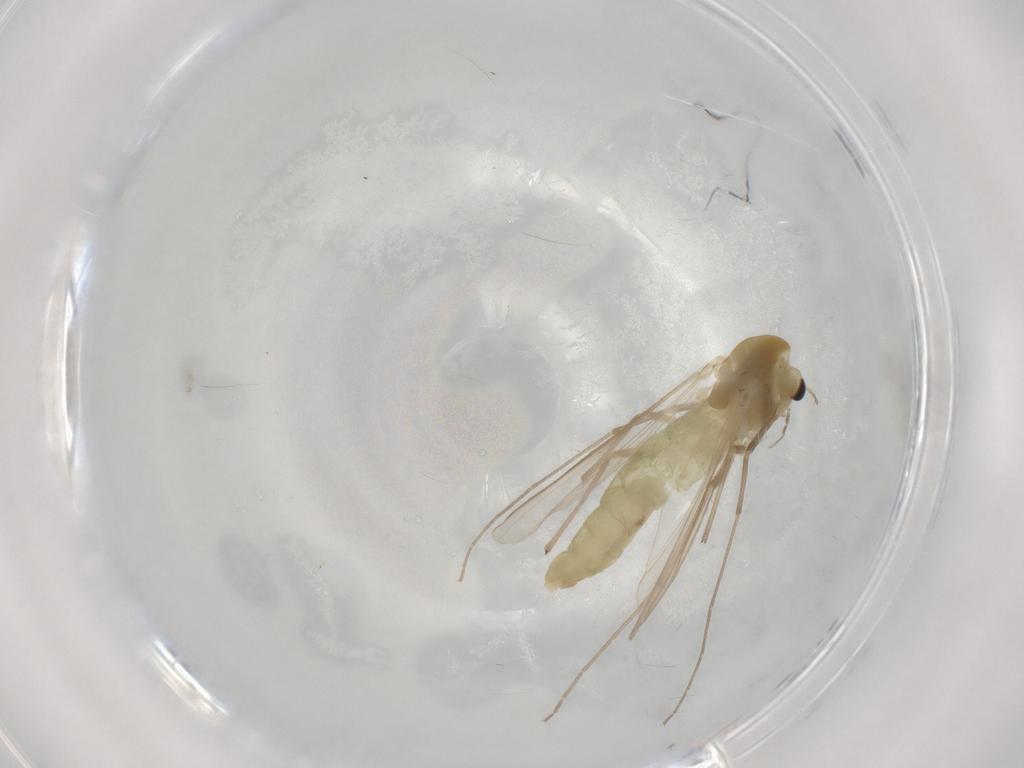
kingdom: Animalia
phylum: Arthropoda
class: Insecta
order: Diptera
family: Chironomidae
